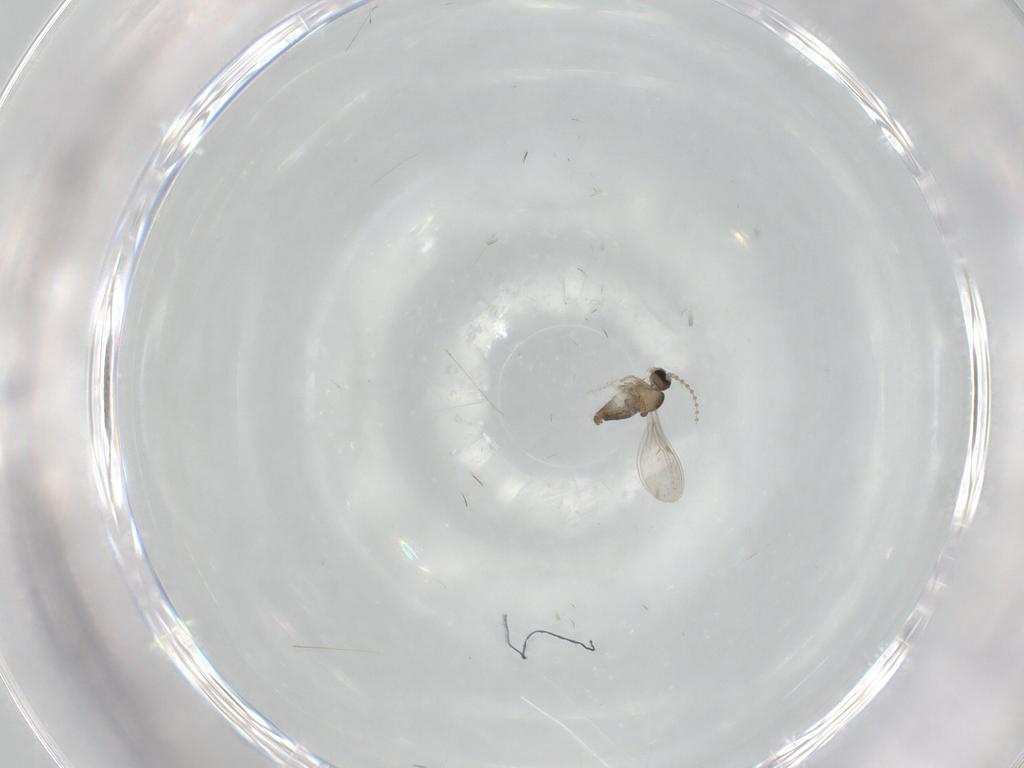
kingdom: Animalia
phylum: Arthropoda
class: Insecta
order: Diptera
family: Cecidomyiidae
